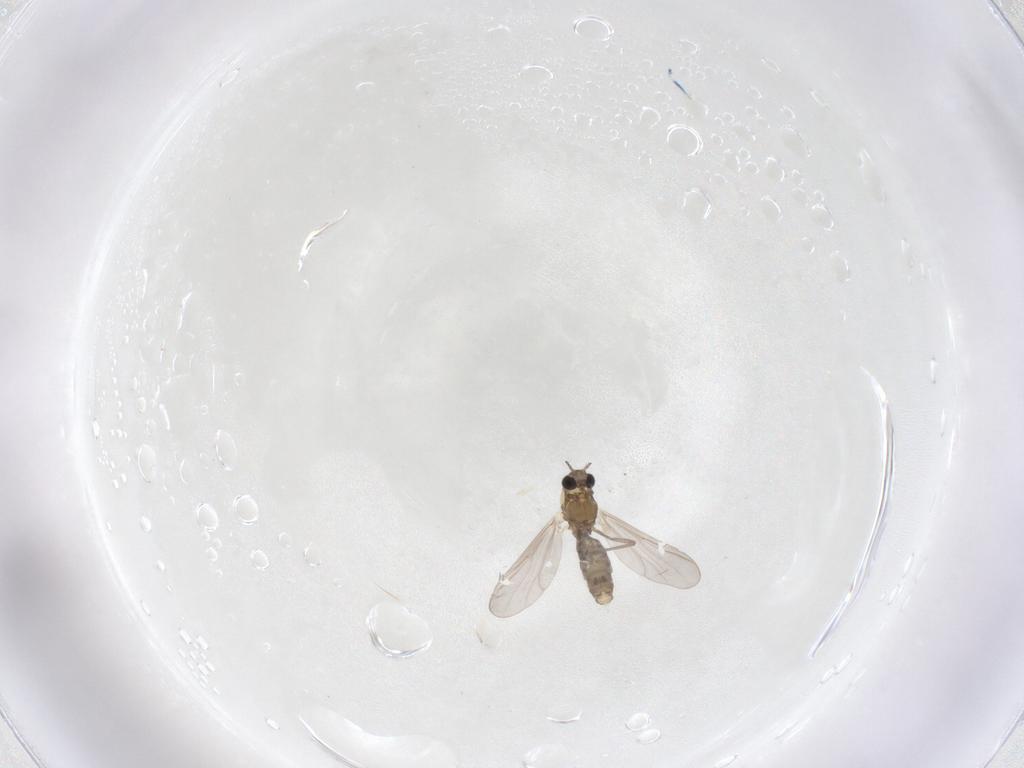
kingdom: Animalia
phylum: Arthropoda
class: Insecta
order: Diptera
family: Chironomidae
